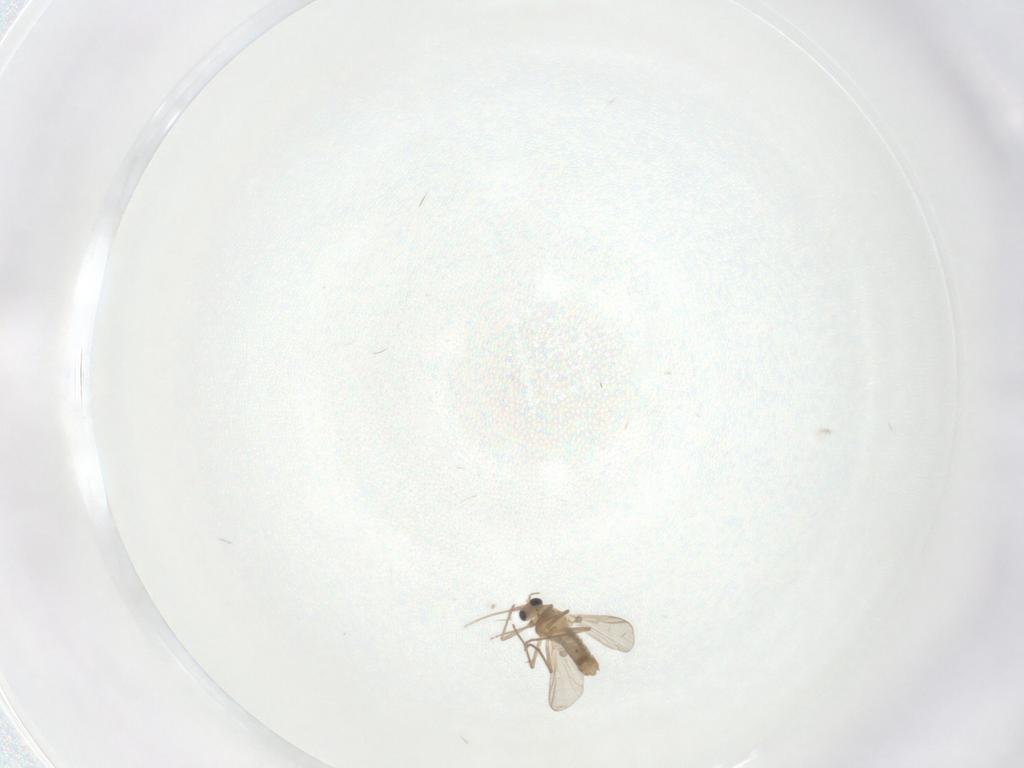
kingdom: Animalia
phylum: Arthropoda
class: Insecta
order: Diptera
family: Chironomidae
